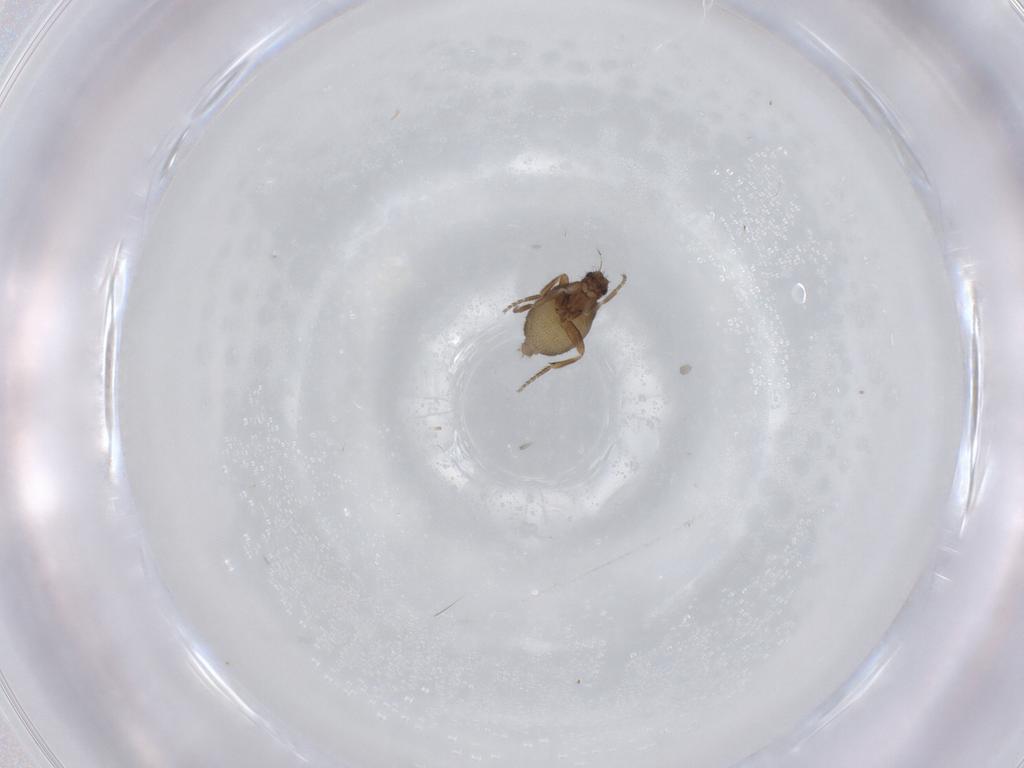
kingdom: Animalia
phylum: Arthropoda
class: Insecta
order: Diptera
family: Phoridae
